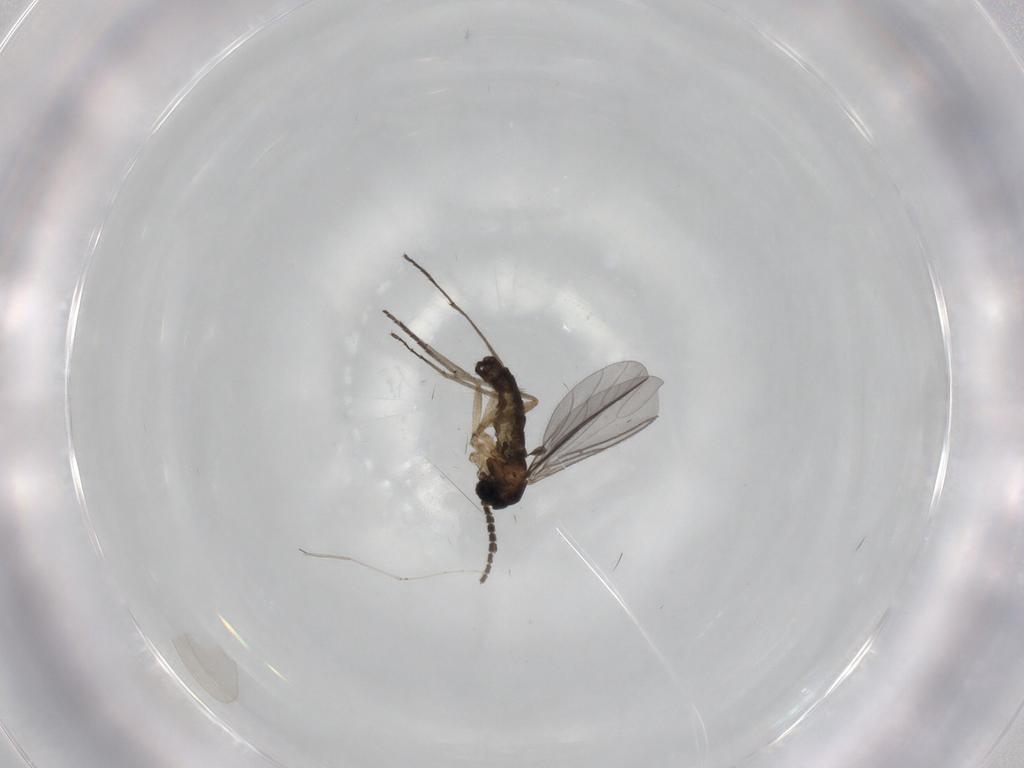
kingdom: Animalia
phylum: Arthropoda
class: Insecta
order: Diptera
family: Sciaridae
